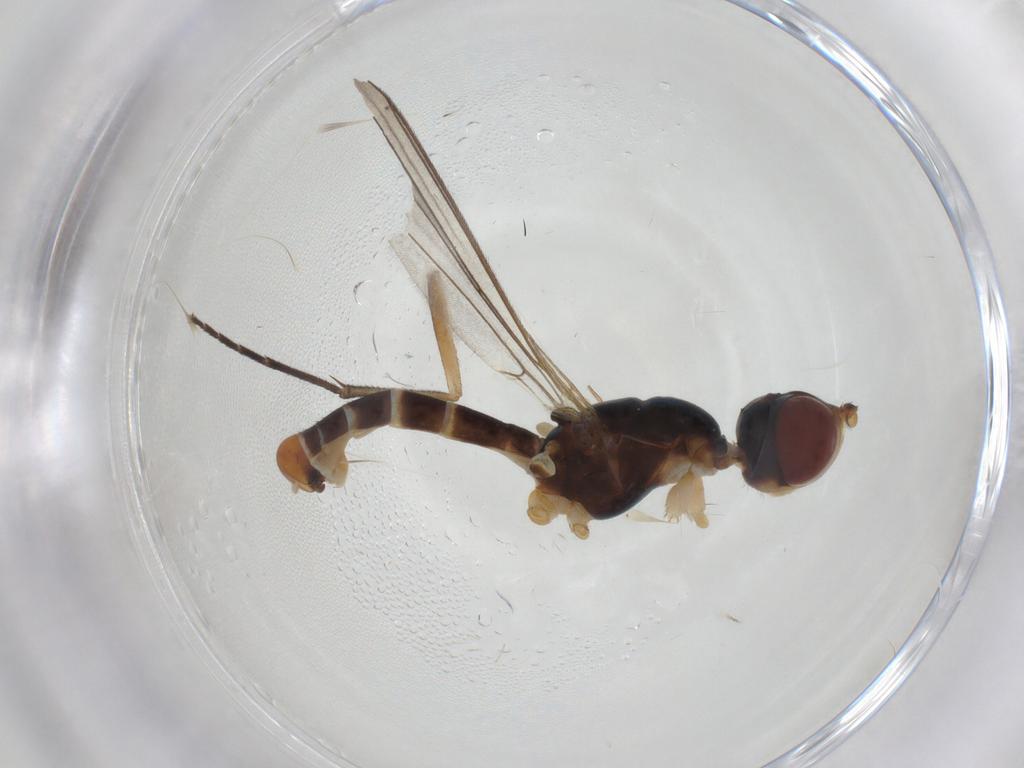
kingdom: Animalia
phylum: Arthropoda
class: Insecta
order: Diptera
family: Micropezidae
